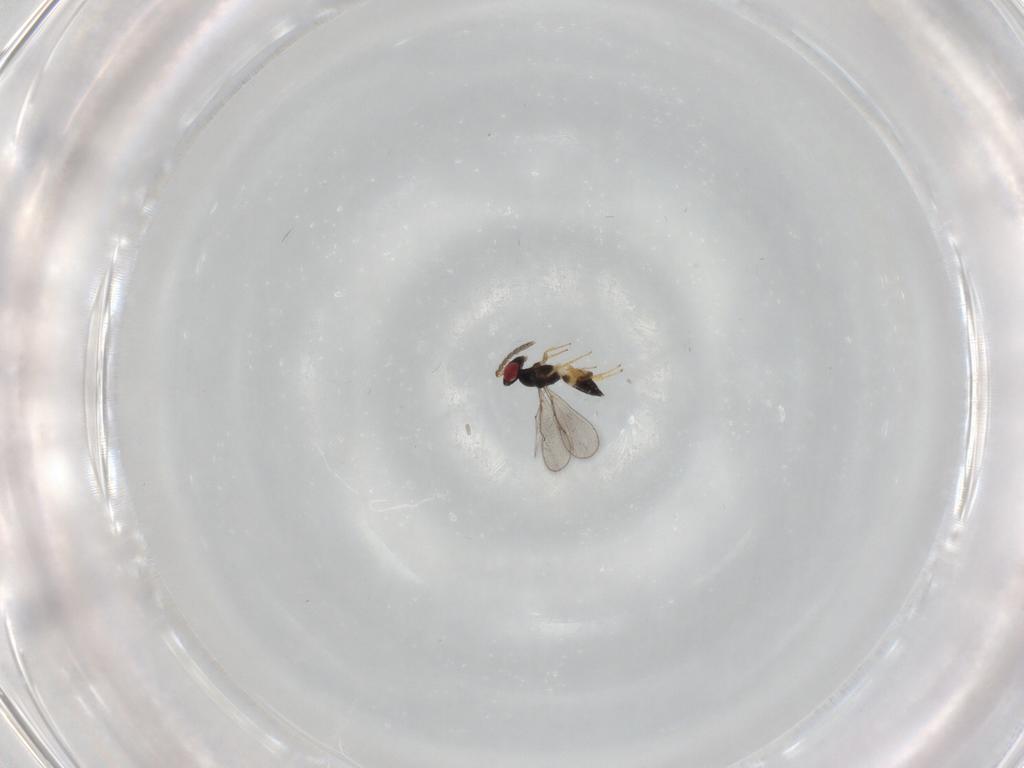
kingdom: Animalia
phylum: Arthropoda
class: Insecta
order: Hymenoptera
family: Eulophidae
